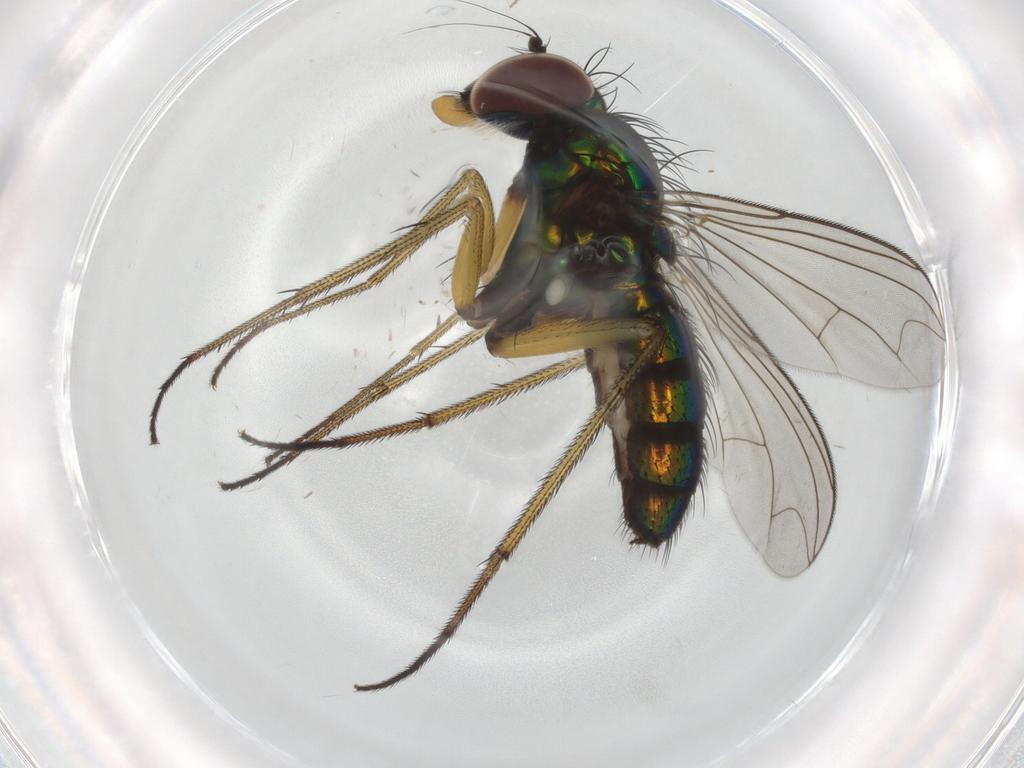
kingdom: Animalia
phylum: Arthropoda
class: Insecta
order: Diptera
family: Dolichopodidae
